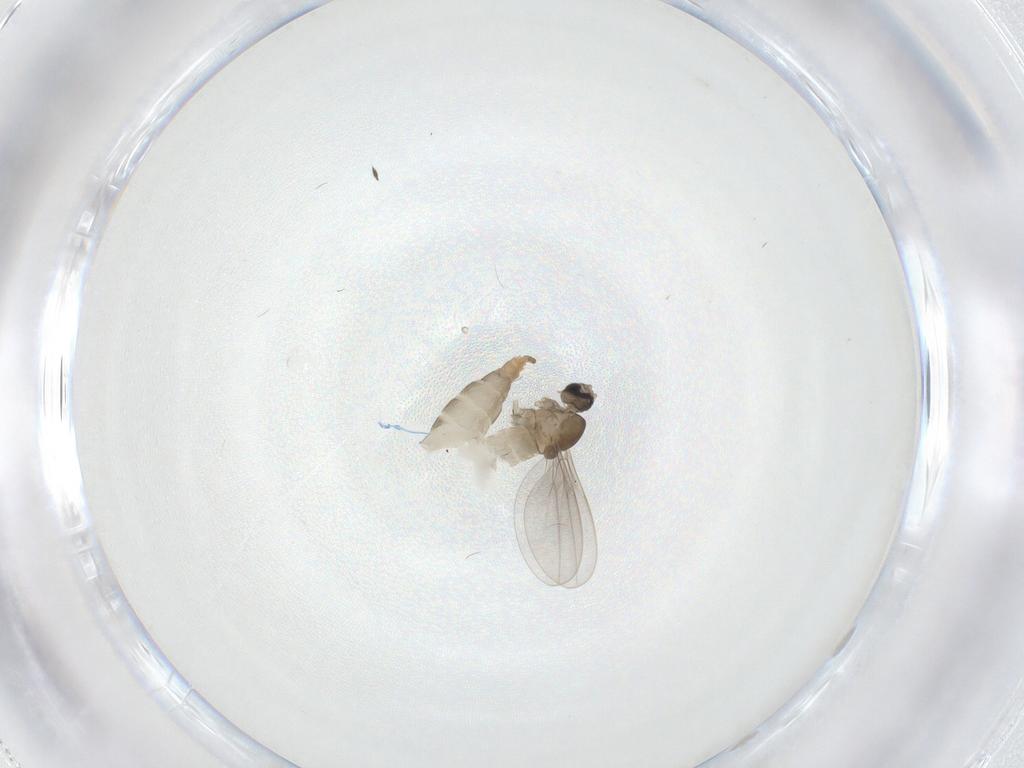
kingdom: Animalia
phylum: Arthropoda
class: Insecta
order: Diptera
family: Cecidomyiidae
